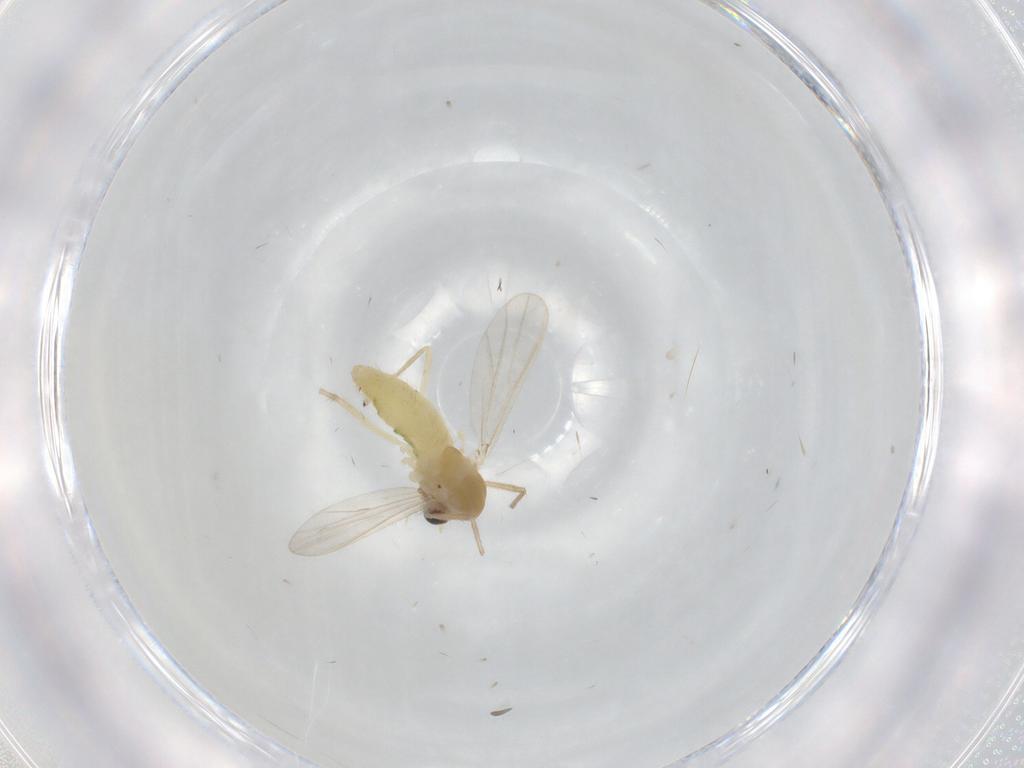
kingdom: Animalia
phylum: Arthropoda
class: Insecta
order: Diptera
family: Chironomidae
